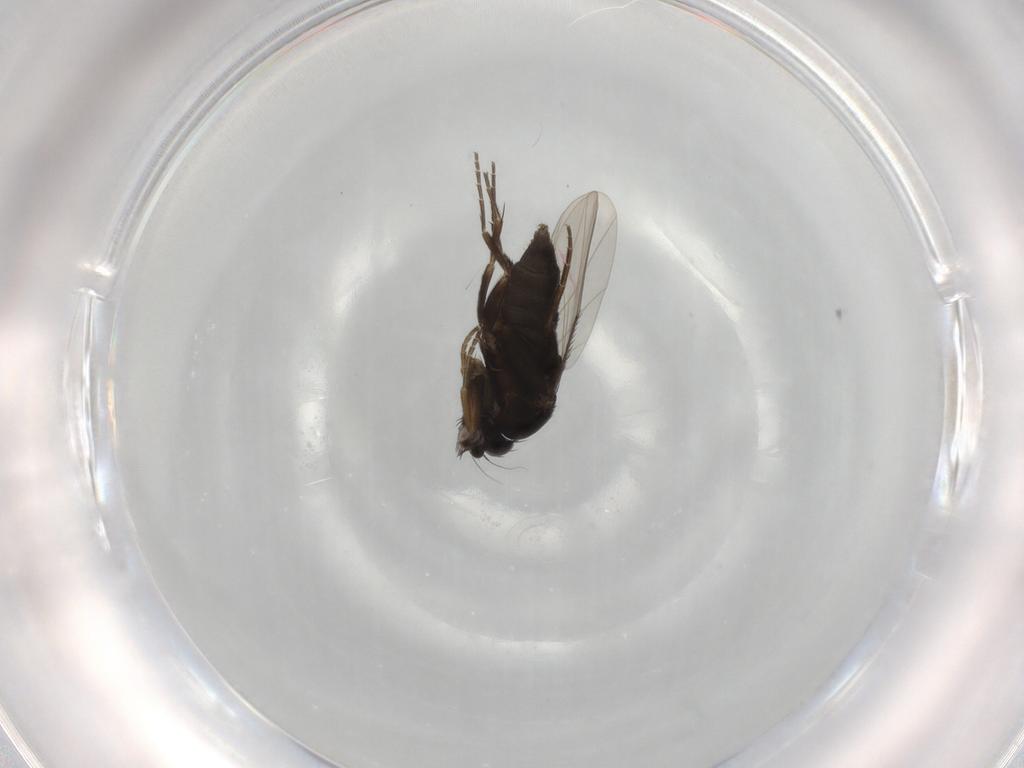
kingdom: Animalia
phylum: Arthropoda
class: Insecta
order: Diptera
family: Phoridae
